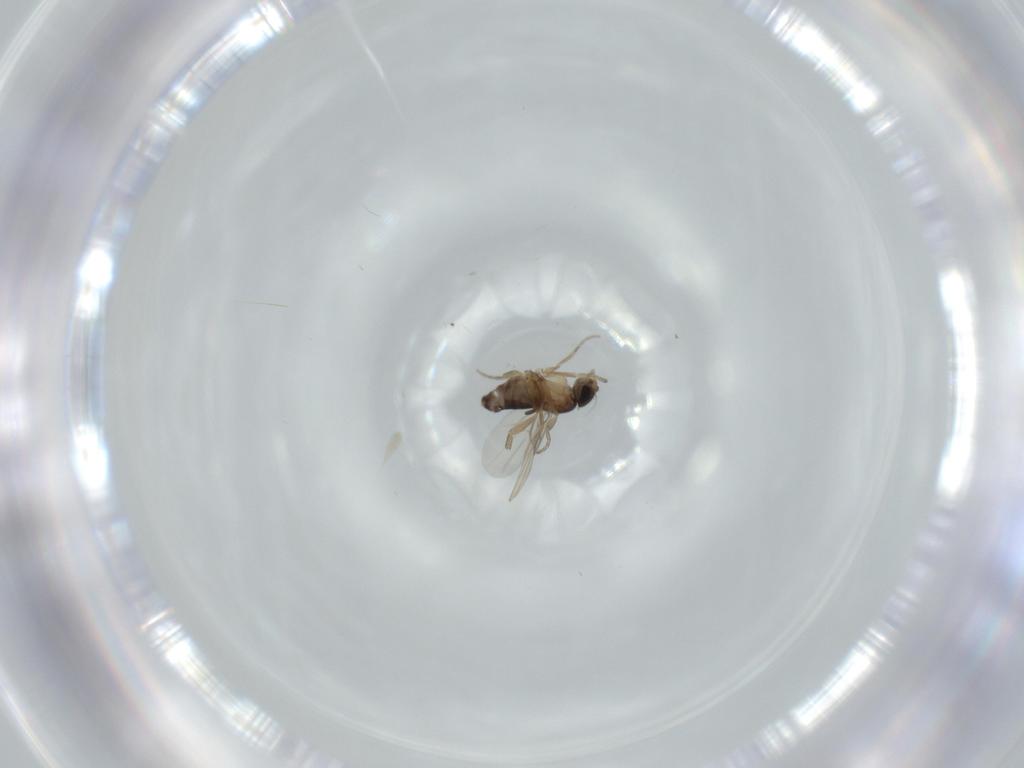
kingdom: Animalia
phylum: Arthropoda
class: Insecta
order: Diptera
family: Phoridae
